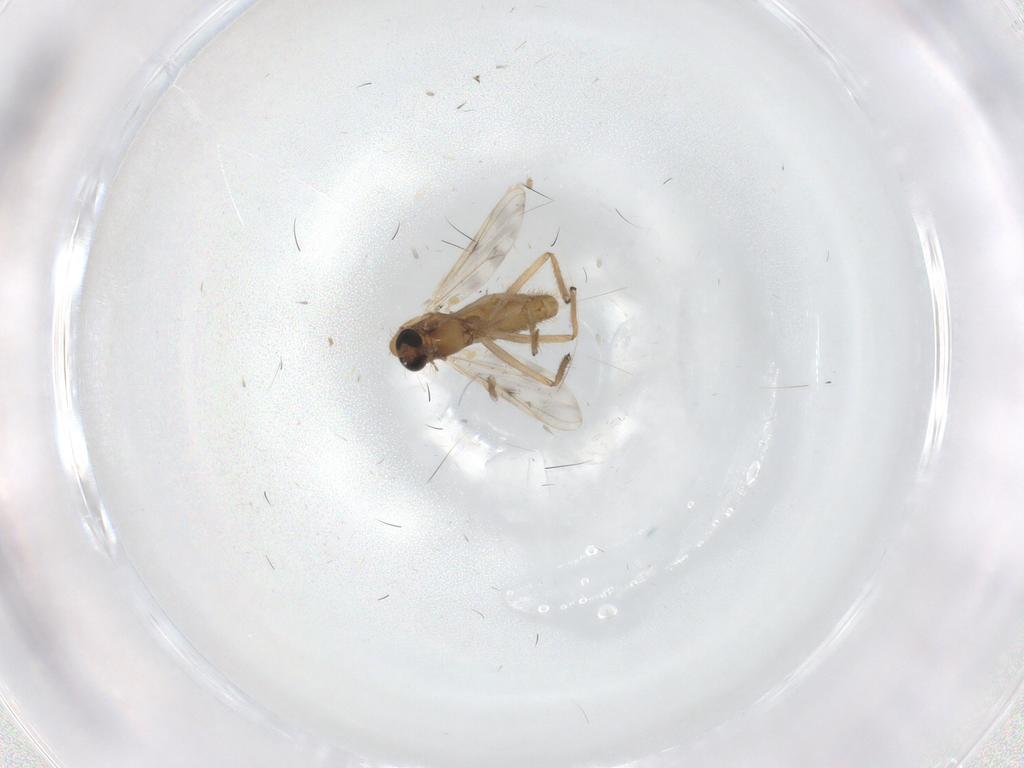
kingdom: Animalia
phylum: Arthropoda
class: Insecta
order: Diptera
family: Chironomidae
